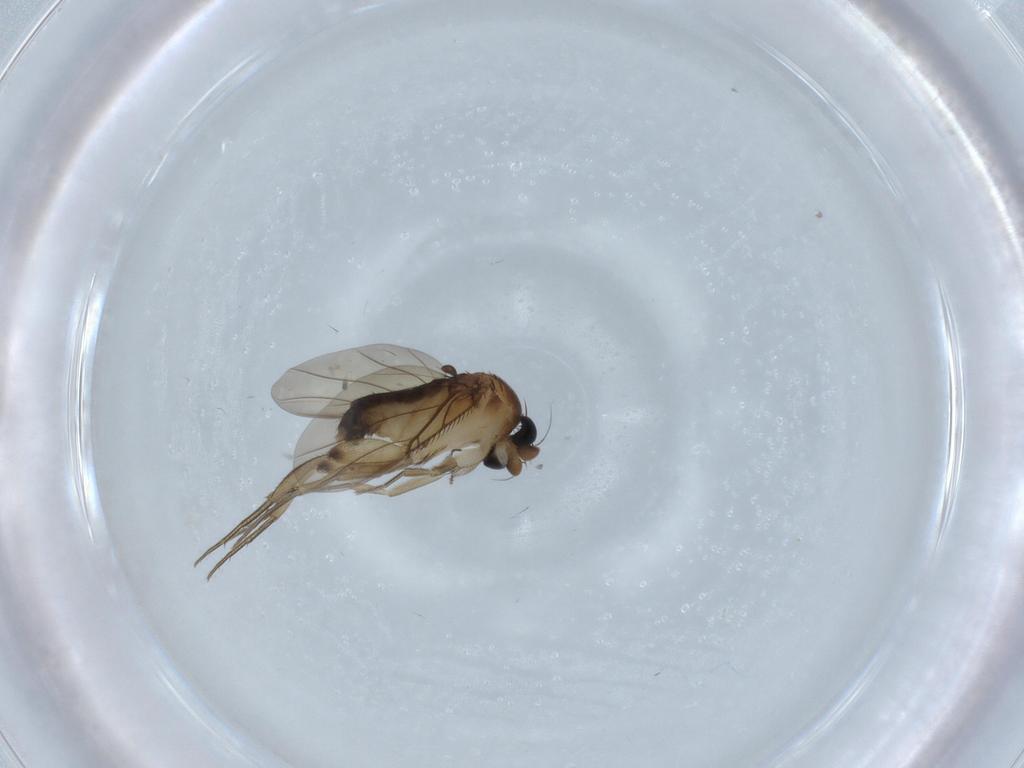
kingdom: Animalia
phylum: Arthropoda
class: Insecta
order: Diptera
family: Phoridae
